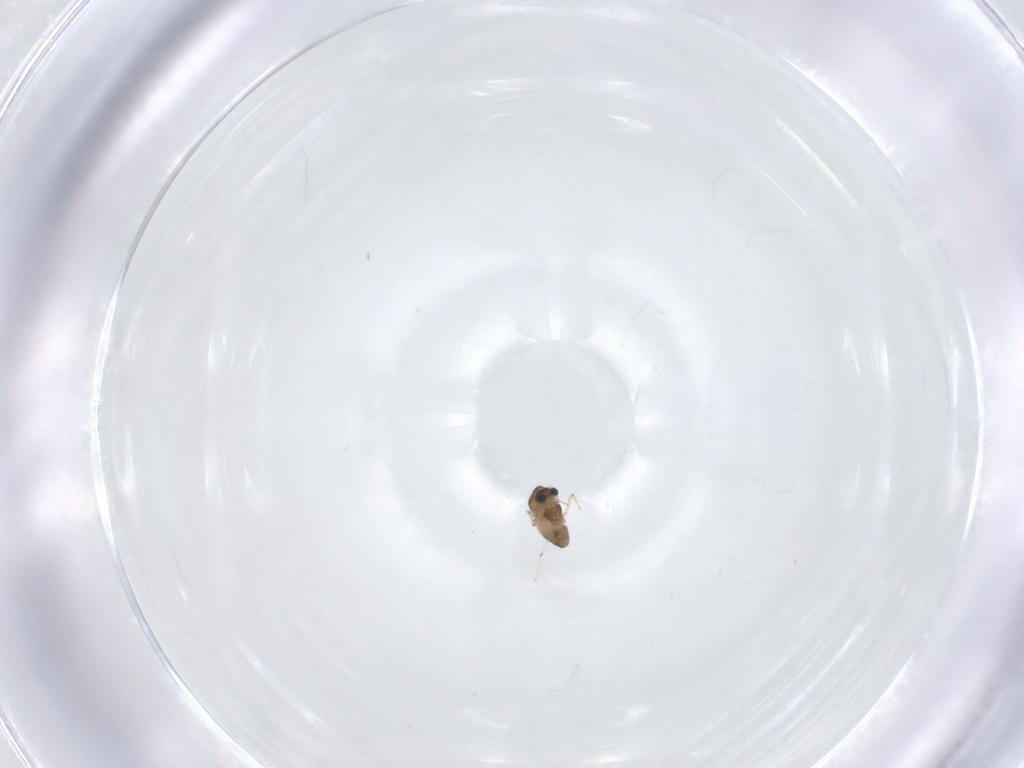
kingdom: Animalia
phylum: Arthropoda
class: Insecta
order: Diptera
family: Chironomidae
